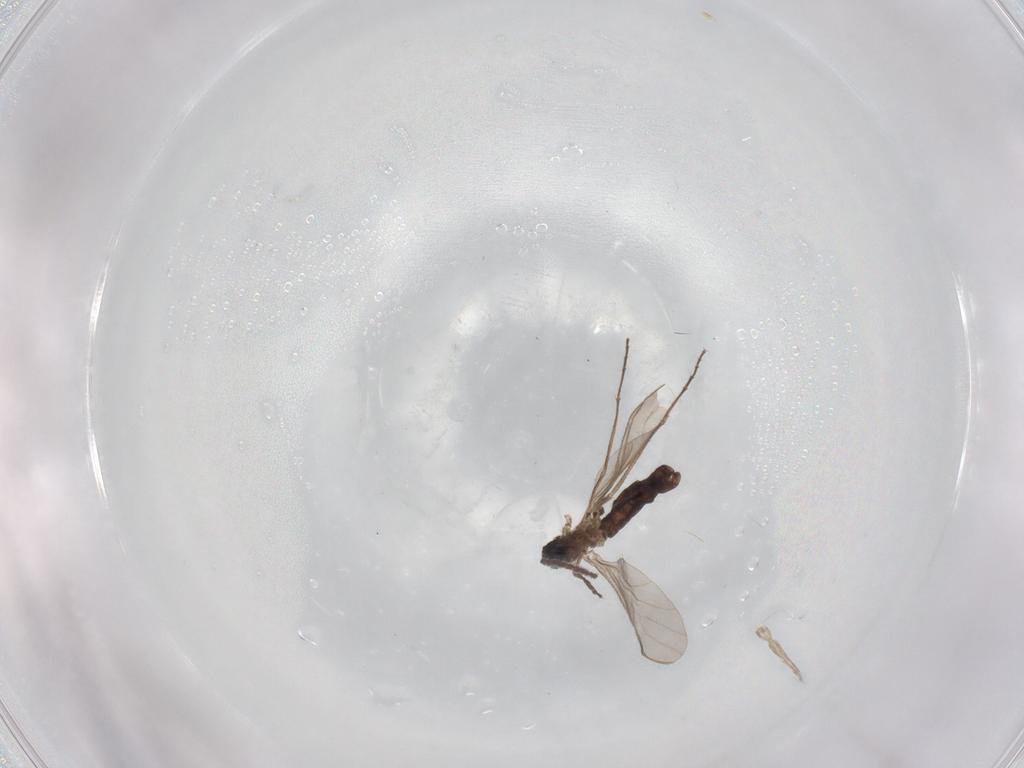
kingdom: Animalia
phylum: Arthropoda
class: Insecta
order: Diptera
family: Sciaridae
